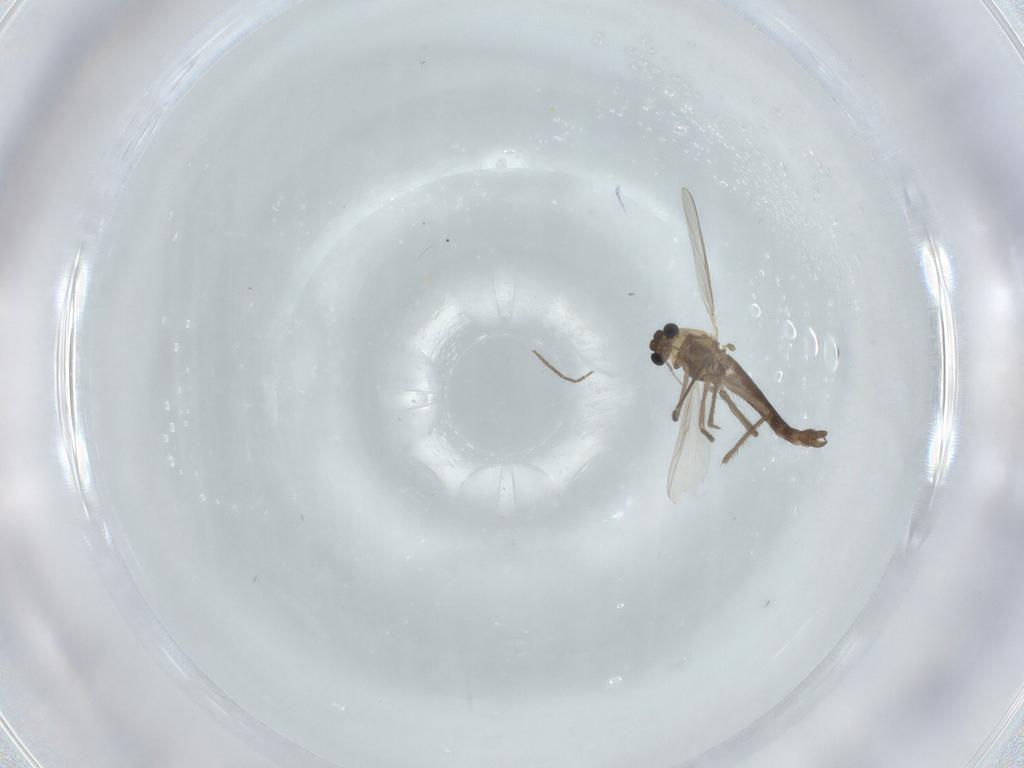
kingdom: Animalia
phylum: Arthropoda
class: Insecta
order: Diptera
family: Chironomidae
